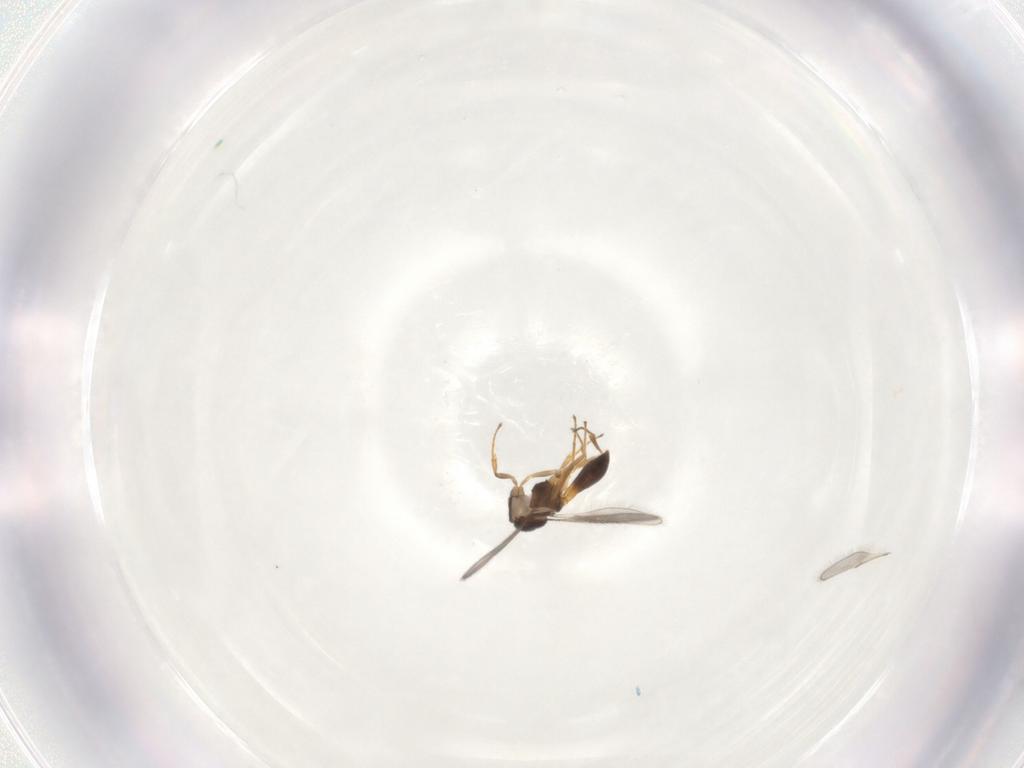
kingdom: Animalia
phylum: Arthropoda
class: Insecta
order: Hymenoptera
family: Scelionidae
